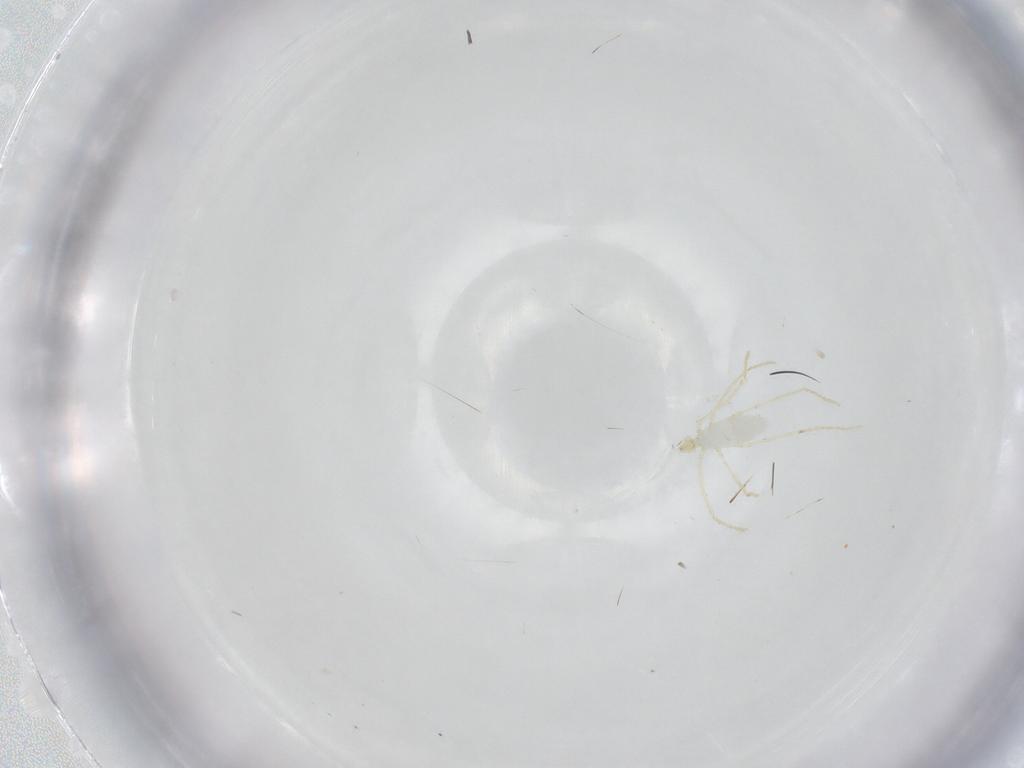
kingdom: Animalia
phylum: Arthropoda
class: Arachnida
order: Trombidiformes
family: Erythraeidae
